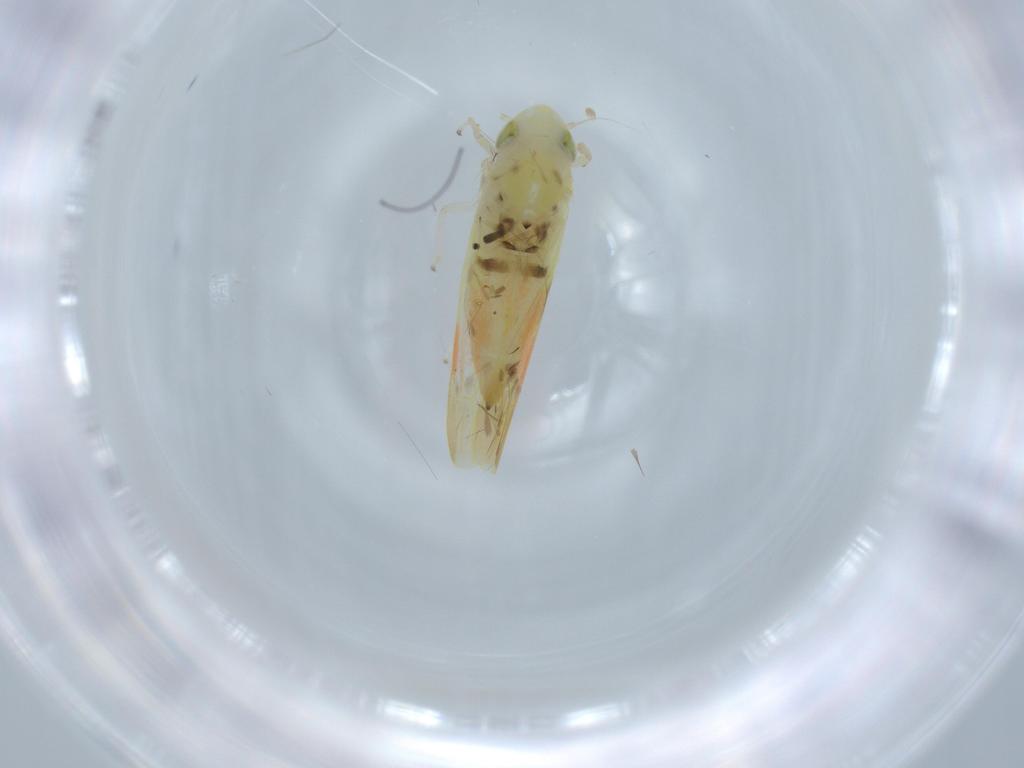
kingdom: Animalia
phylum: Arthropoda
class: Insecta
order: Hemiptera
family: Cicadellidae
